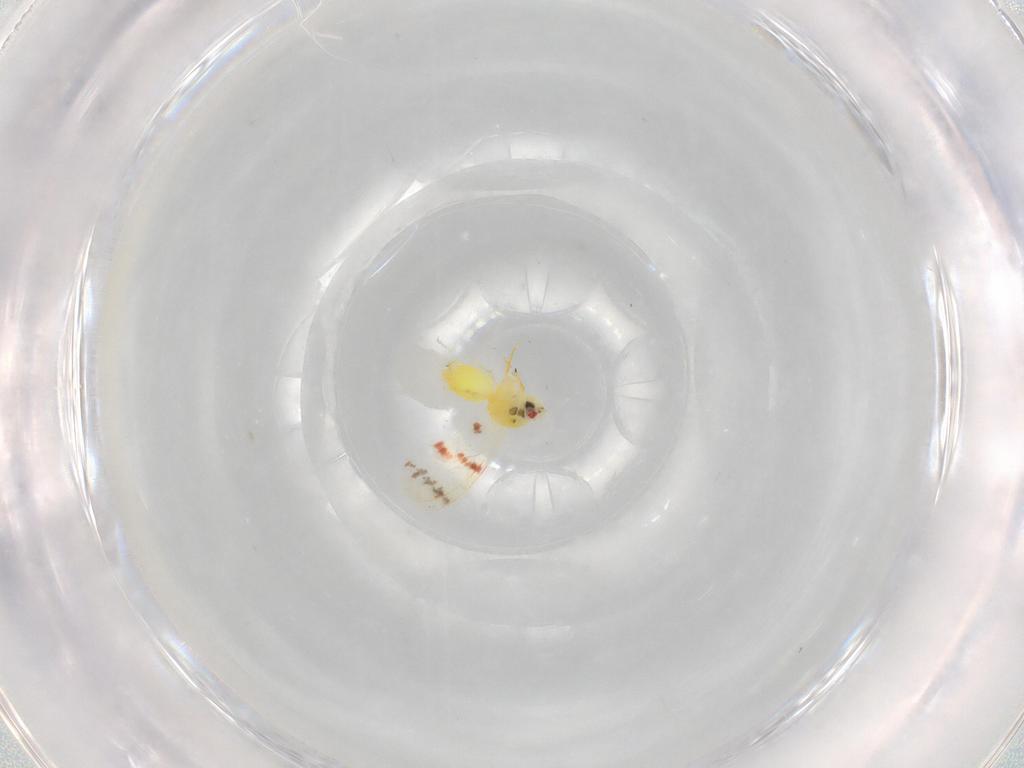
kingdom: Animalia
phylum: Arthropoda
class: Insecta
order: Hemiptera
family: Aleyrodidae
